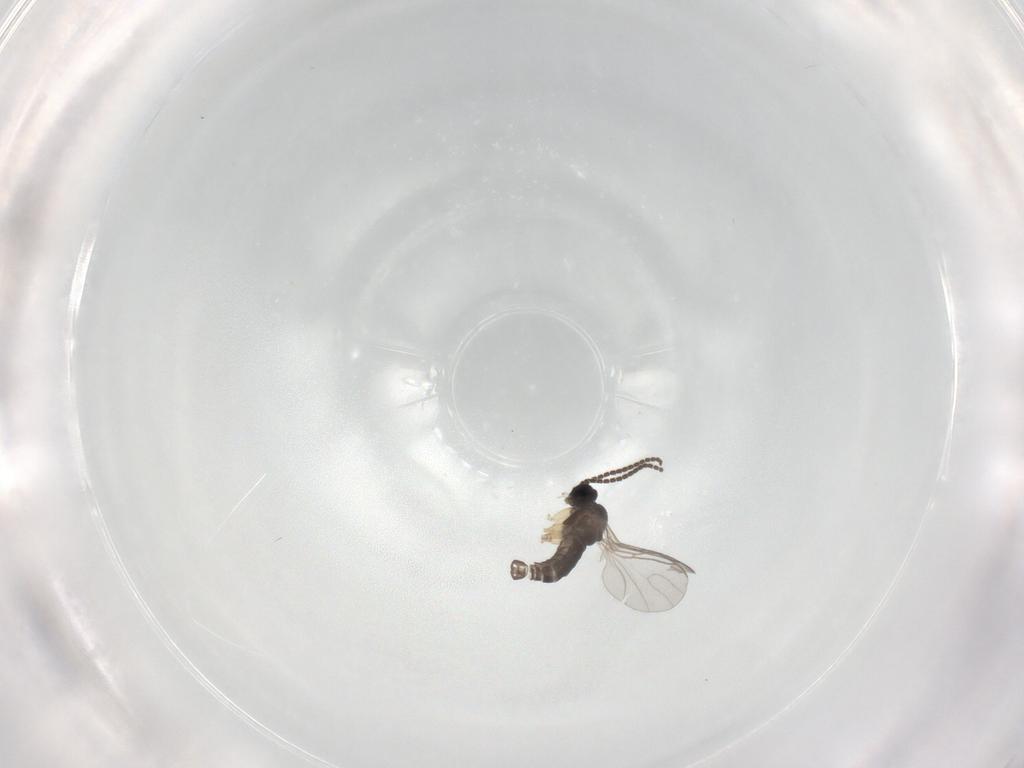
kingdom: Animalia
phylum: Arthropoda
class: Insecta
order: Diptera
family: Sciaridae
